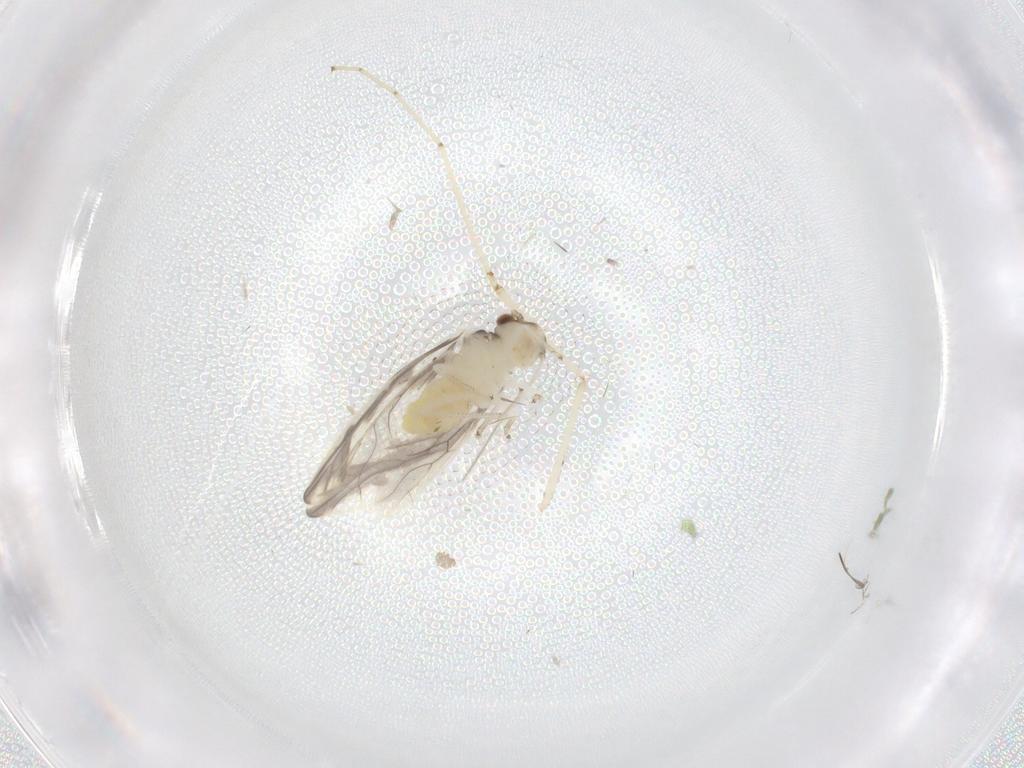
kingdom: Animalia
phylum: Arthropoda
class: Insecta
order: Psocodea
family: Caeciliusidae
